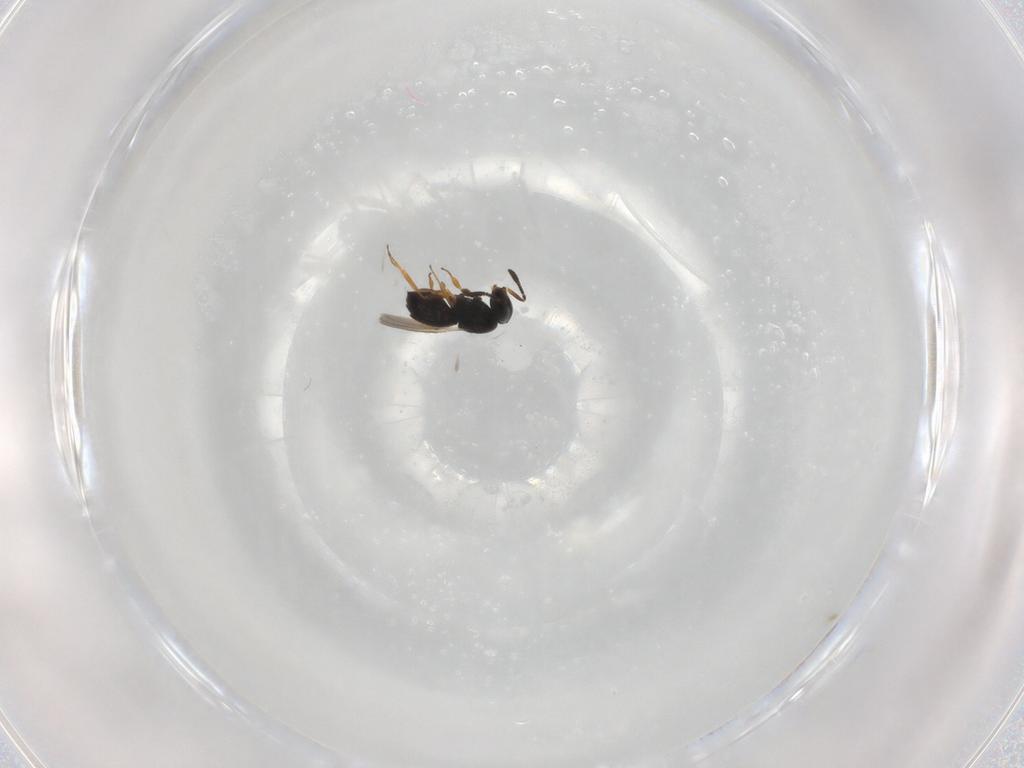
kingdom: Animalia
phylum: Arthropoda
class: Insecta
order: Hymenoptera
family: Scelionidae
